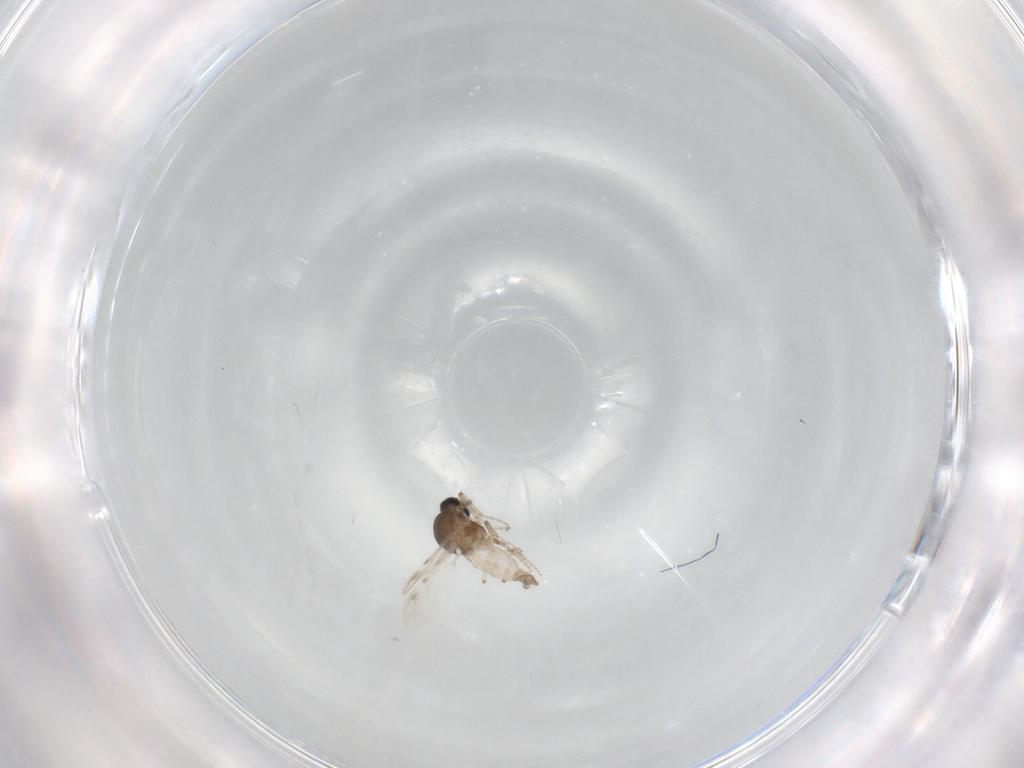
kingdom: Animalia
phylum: Arthropoda
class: Insecta
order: Diptera
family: Ceratopogonidae
